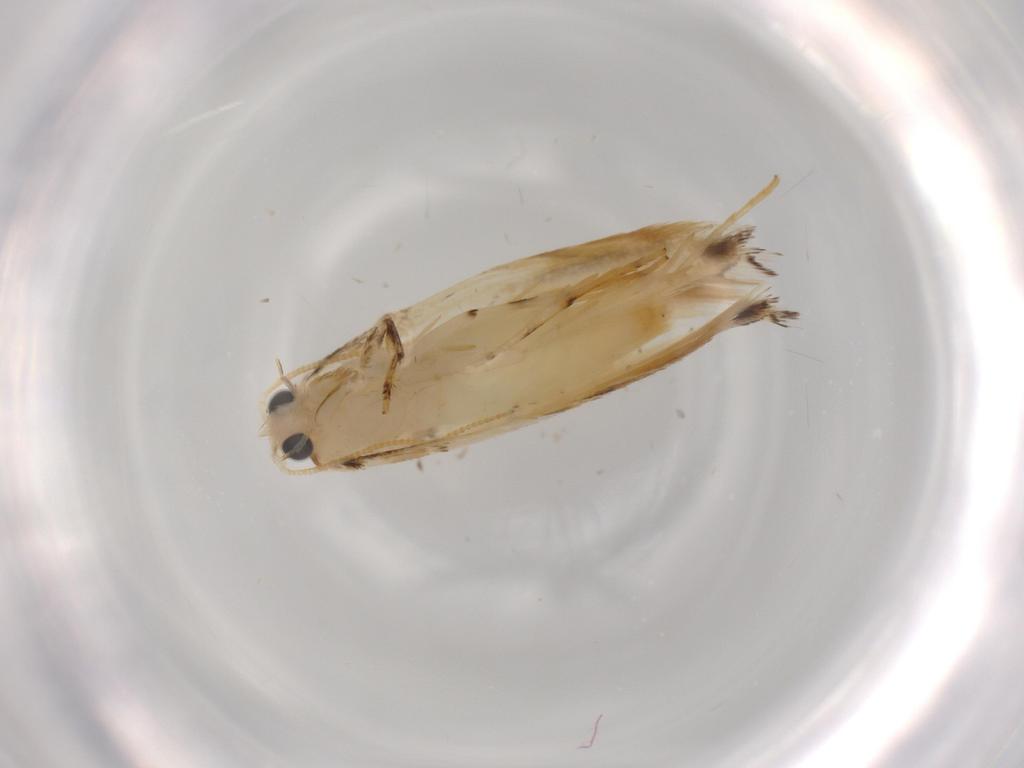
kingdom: Animalia
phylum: Arthropoda
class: Insecta
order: Lepidoptera
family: Tineidae
